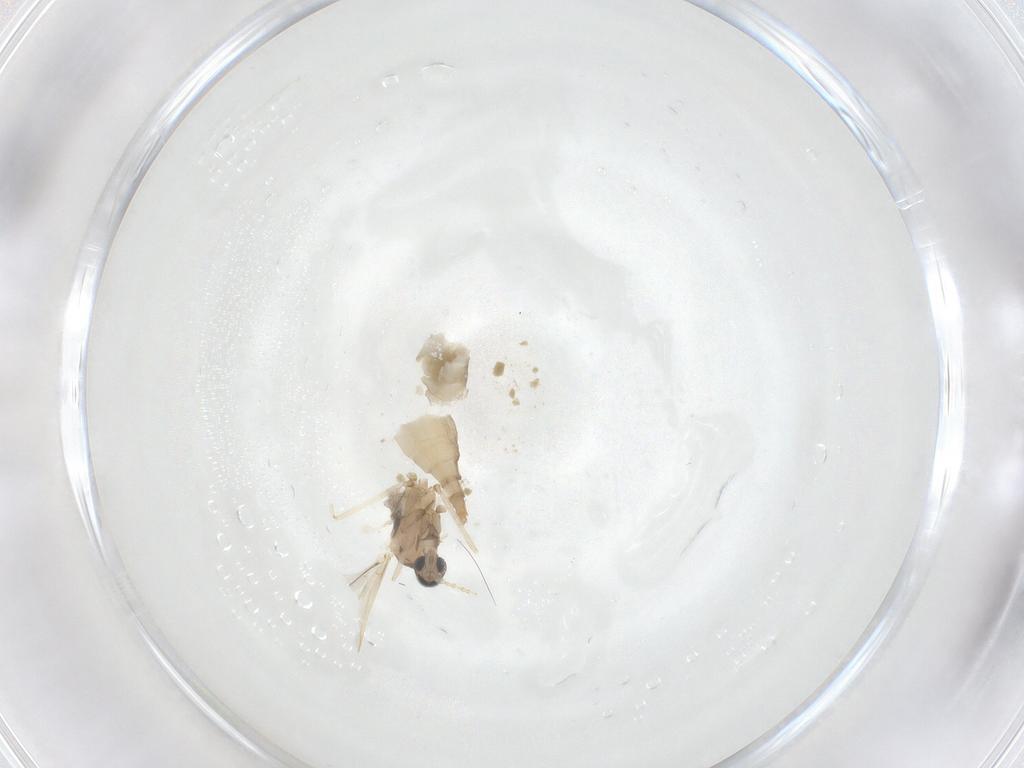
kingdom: Animalia
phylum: Arthropoda
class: Insecta
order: Diptera
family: Cecidomyiidae
